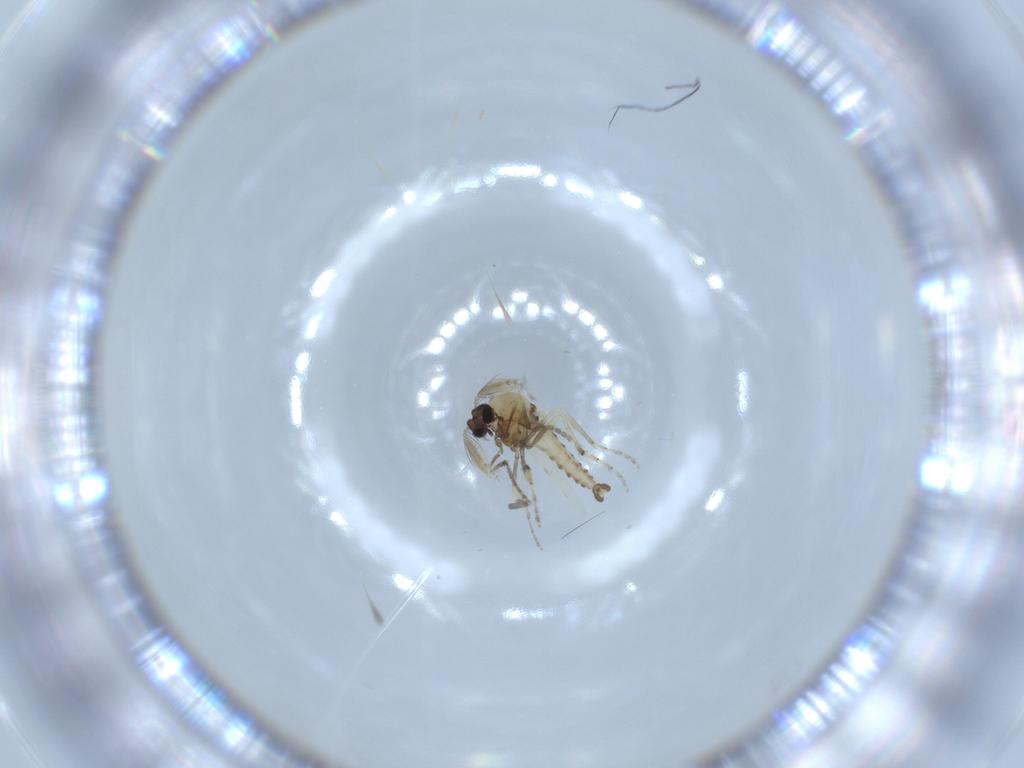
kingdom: Animalia
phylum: Arthropoda
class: Insecta
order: Diptera
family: Ceratopogonidae
